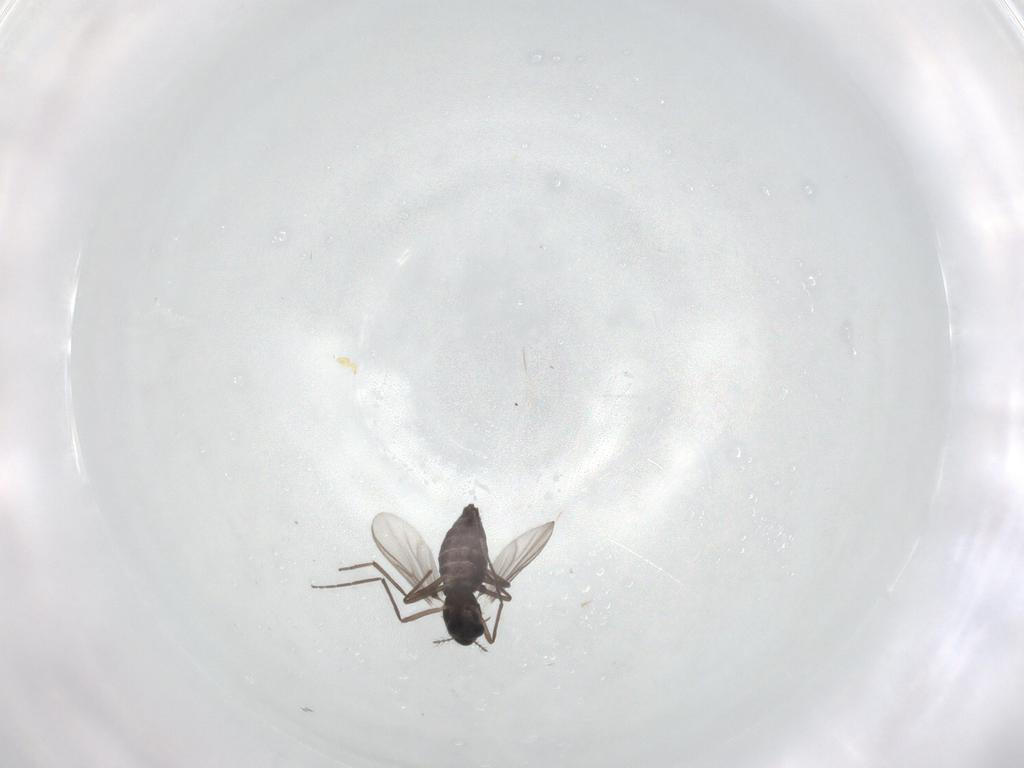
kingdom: Animalia
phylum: Arthropoda
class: Insecta
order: Diptera
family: Chironomidae
